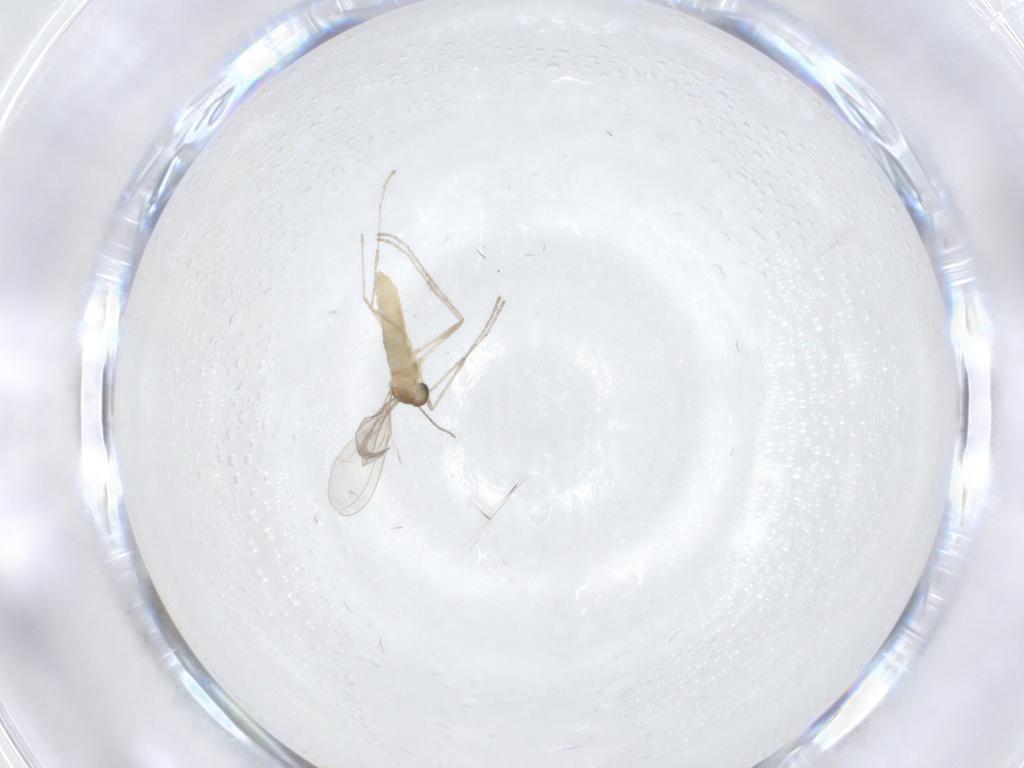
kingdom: Animalia
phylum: Arthropoda
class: Insecta
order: Diptera
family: Cecidomyiidae
